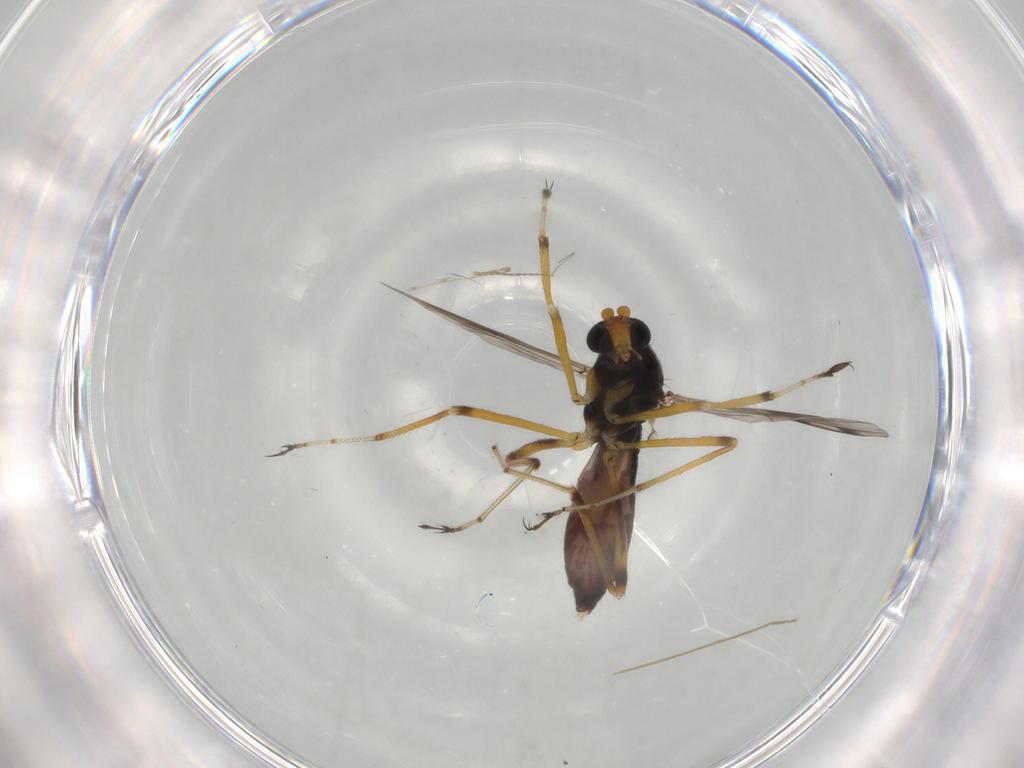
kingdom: Animalia
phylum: Arthropoda
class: Insecta
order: Diptera
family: Ceratopogonidae
